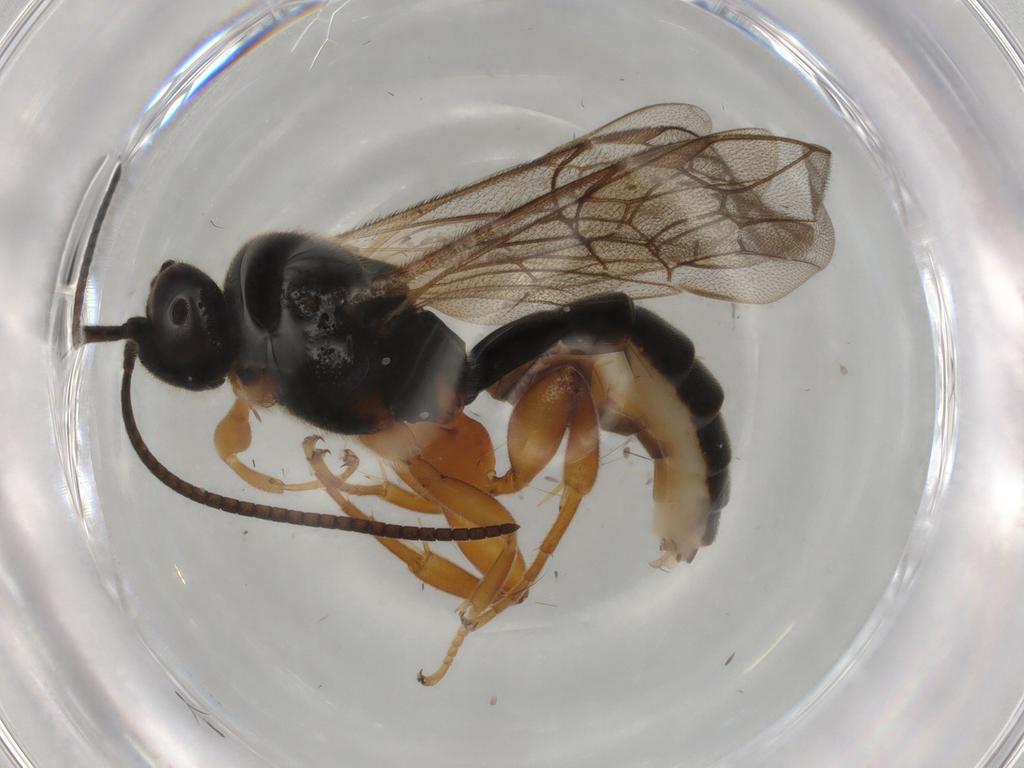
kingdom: Animalia
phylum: Arthropoda
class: Insecta
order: Hymenoptera
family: Ichneumonidae
